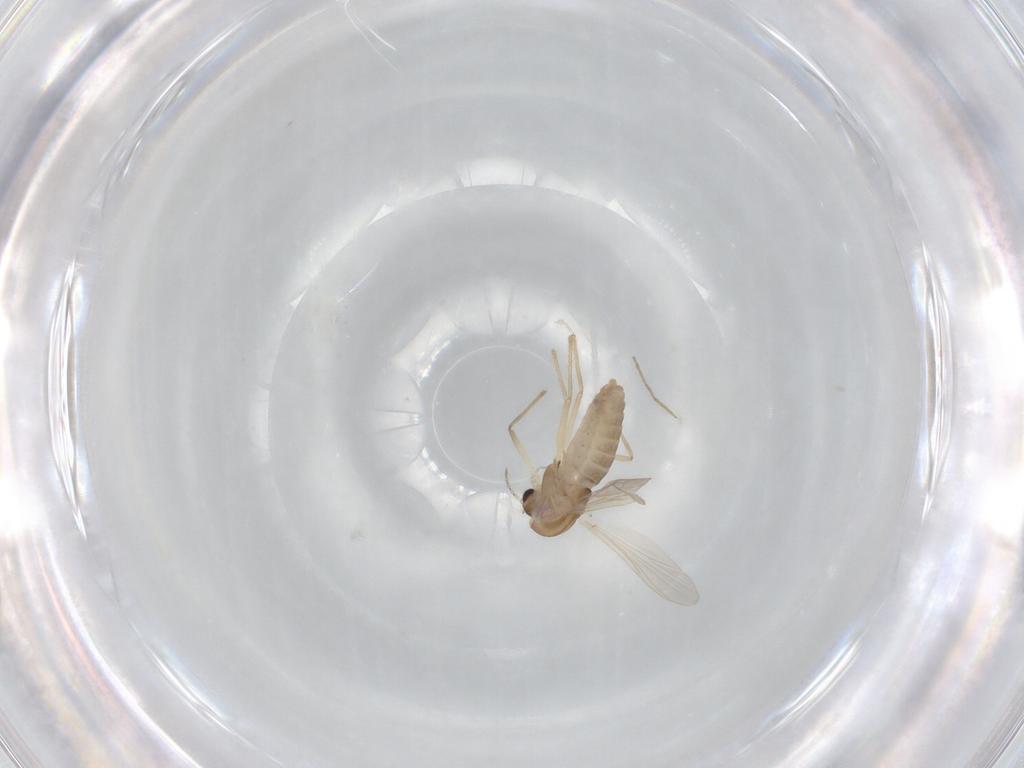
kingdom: Animalia
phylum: Arthropoda
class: Insecta
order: Diptera
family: Chironomidae
